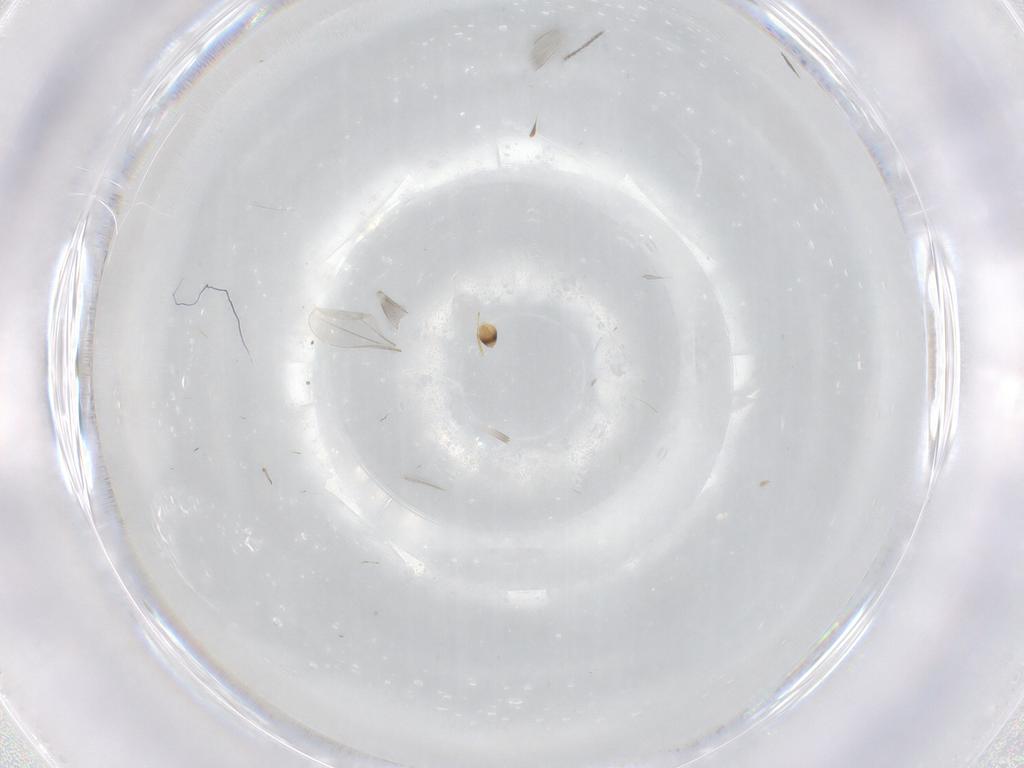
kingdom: Animalia
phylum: Arthropoda
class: Insecta
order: Hymenoptera
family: Mymaridae
